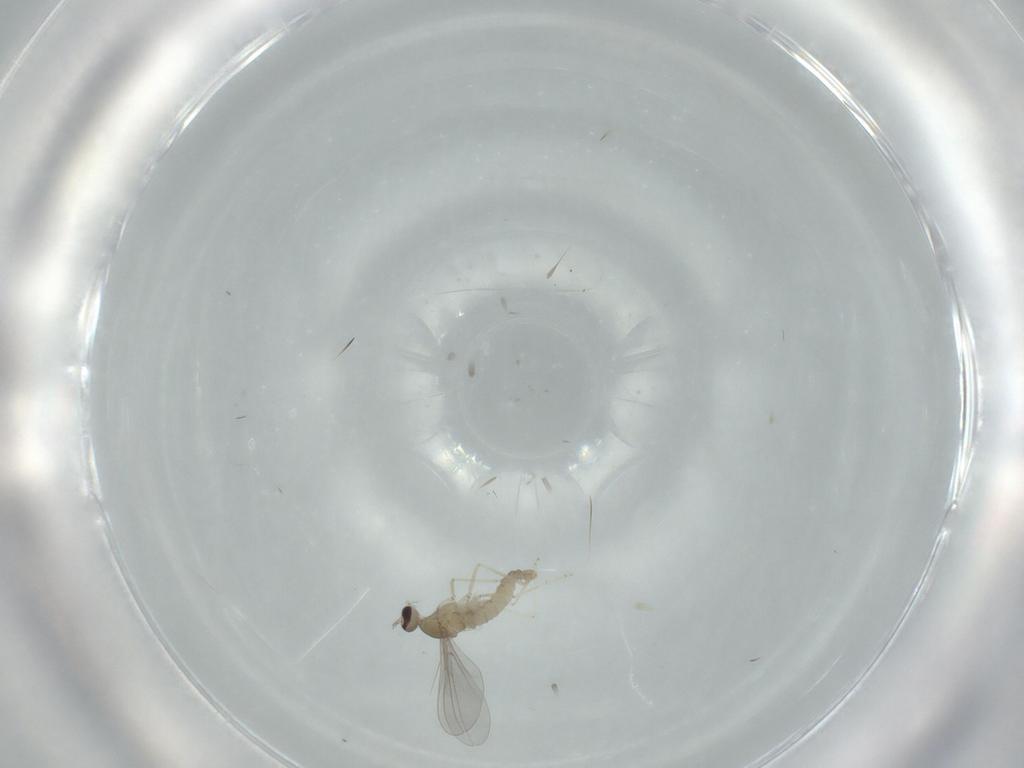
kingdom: Animalia
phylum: Arthropoda
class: Insecta
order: Diptera
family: Cecidomyiidae
